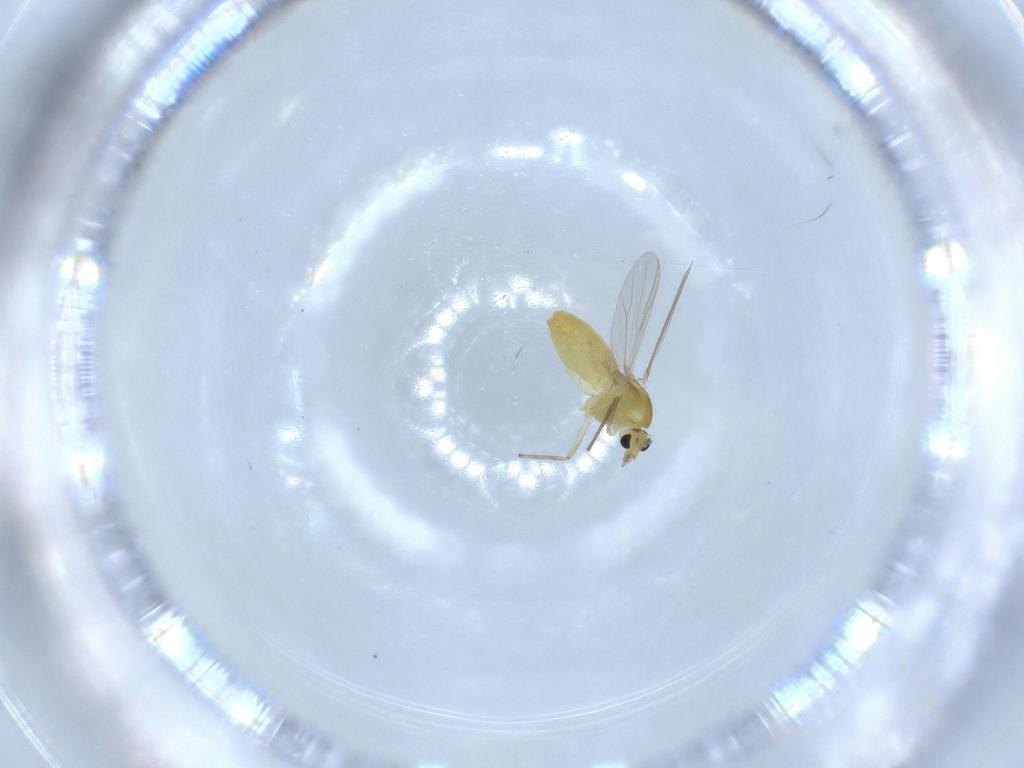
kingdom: Animalia
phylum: Arthropoda
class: Insecta
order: Diptera
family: Chironomidae
